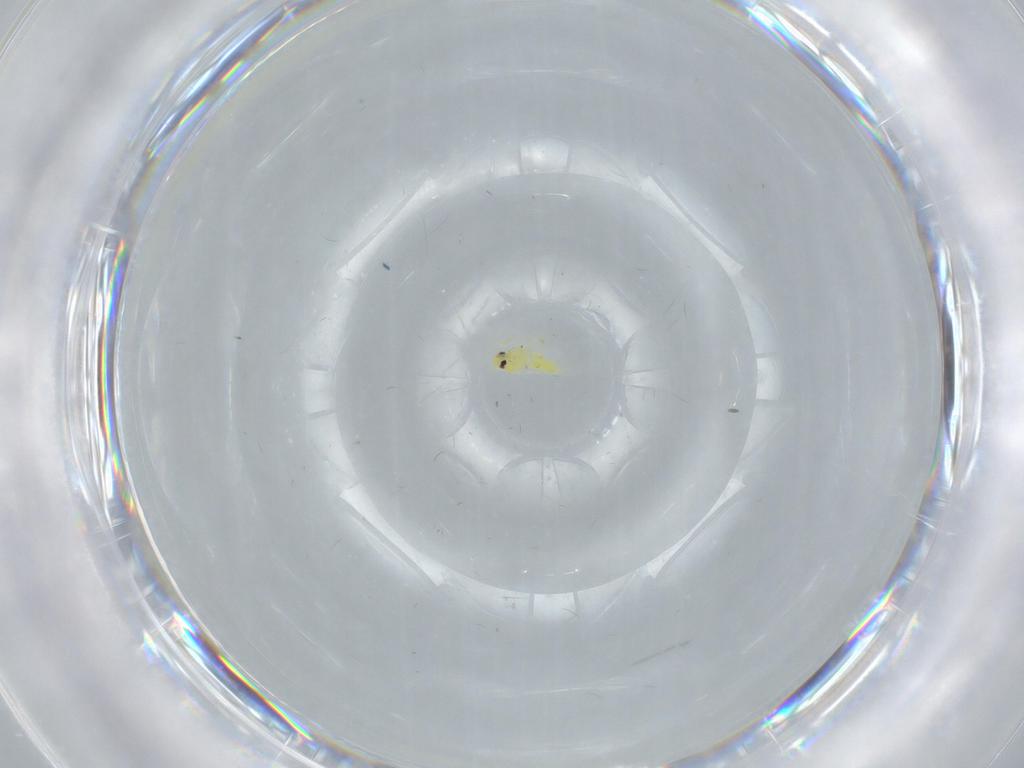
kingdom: Animalia
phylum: Arthropoda
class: Insecta
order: Hemiptera
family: Aleyrodidae
